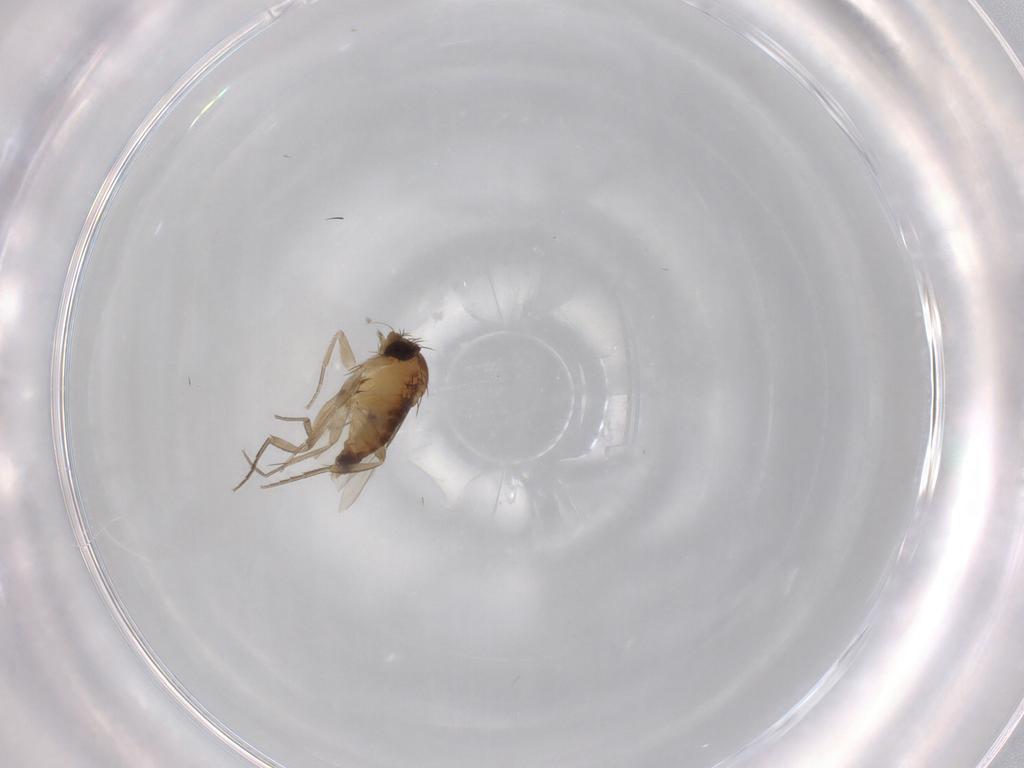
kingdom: Animalia
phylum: Arthropoda
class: Insecta
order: Diptera
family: Phoridae
